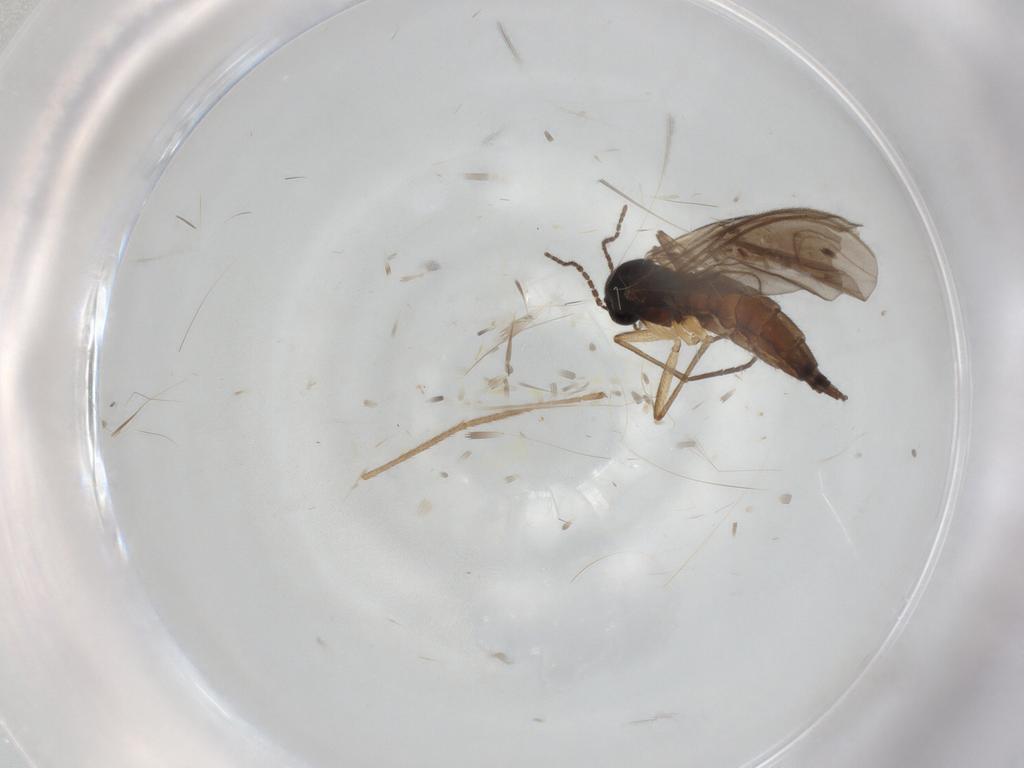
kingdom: Animalia
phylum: Arthropoda
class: Insecta
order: Diptera
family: Sciaridae
